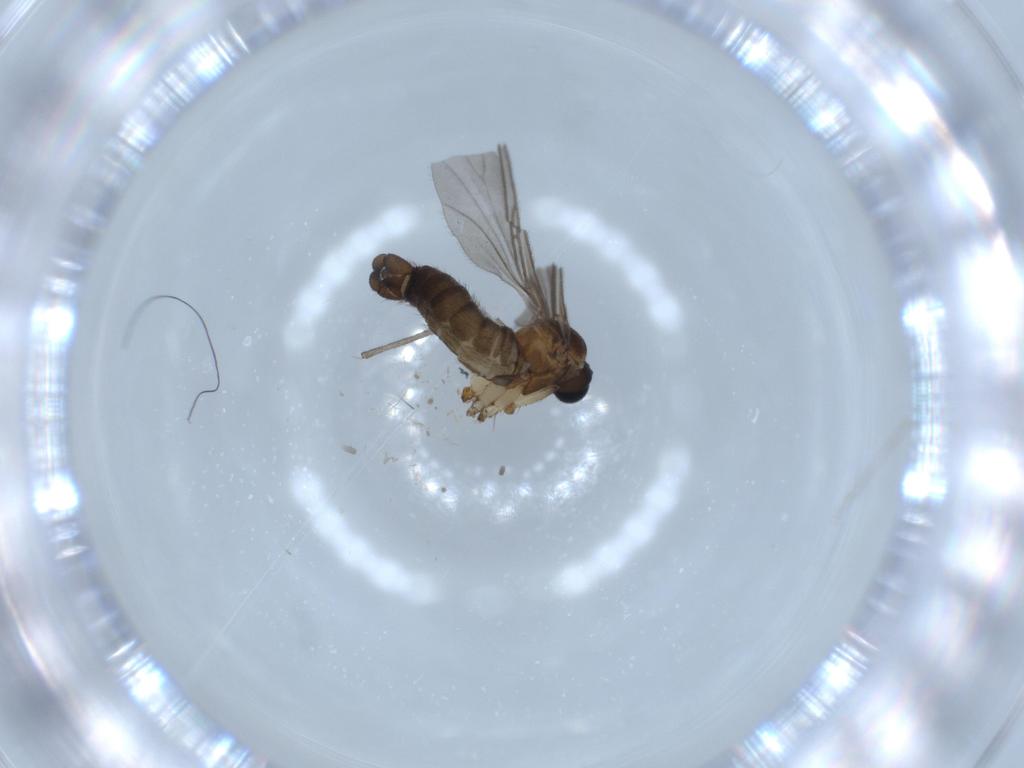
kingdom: Animalia
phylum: Arthropoda
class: Insecta
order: Diptera
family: Sciaridae
